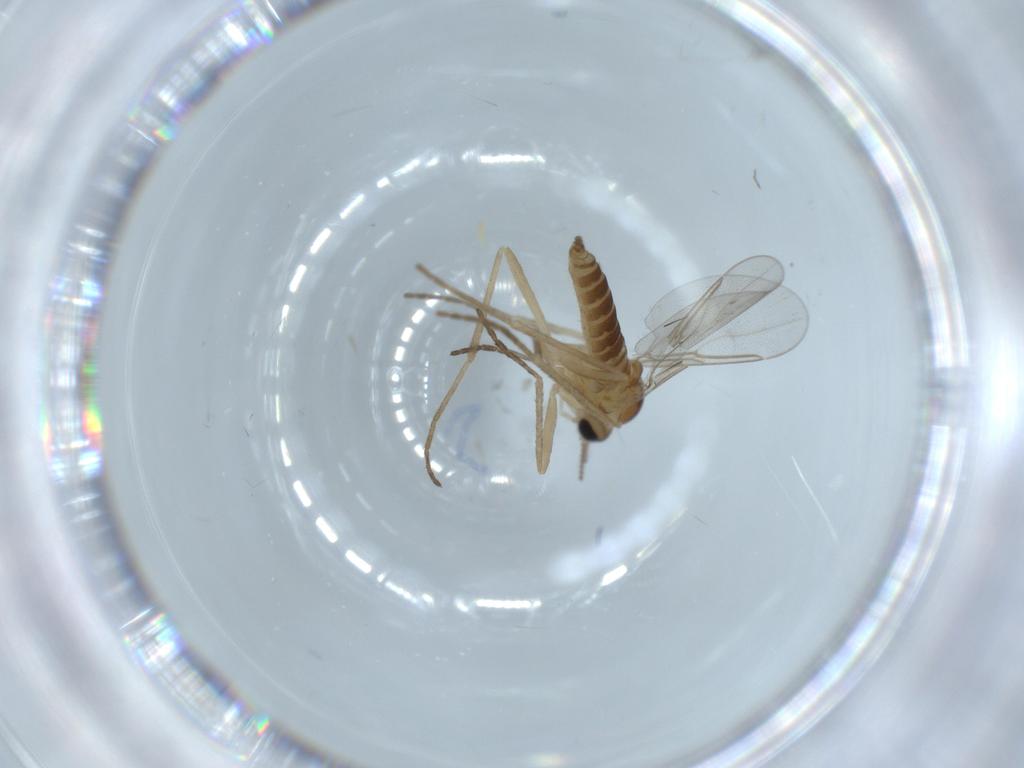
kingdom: Animalia
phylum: Arthropoda
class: Insecta
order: Diptera
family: Cecidomyiidae
